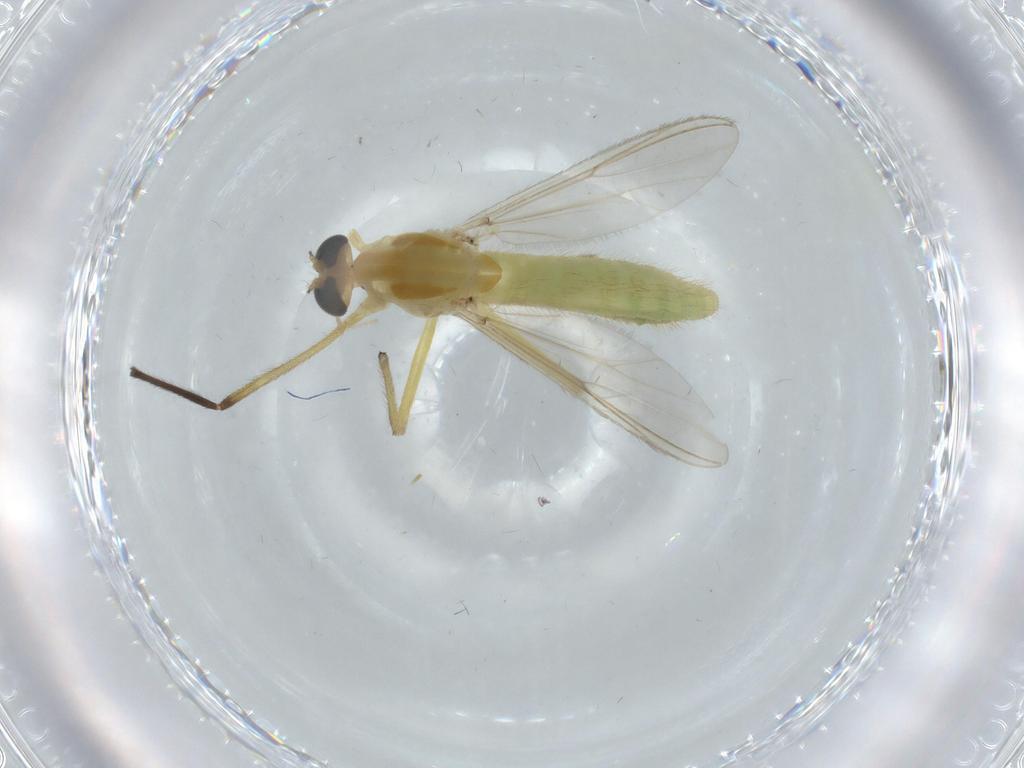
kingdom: Animalia
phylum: Arthropoda
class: Insecta
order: Diptera
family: Chironomidae
